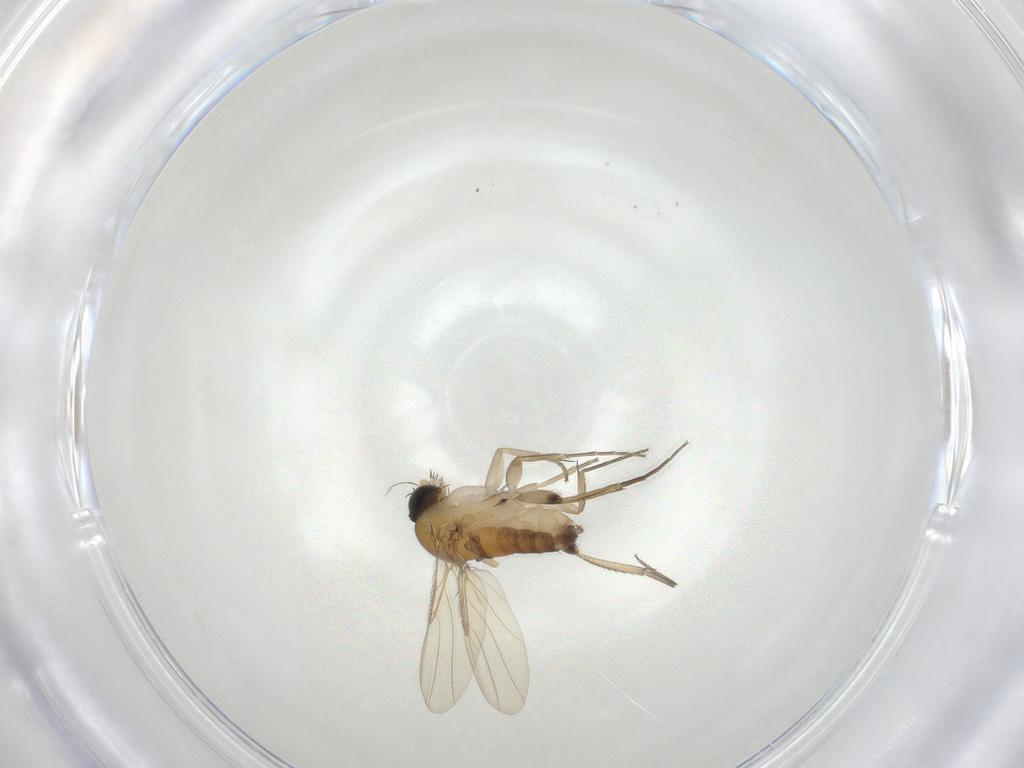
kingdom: Animalia
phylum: Arthropoda
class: Insecta
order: Diptera
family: Phoridae
